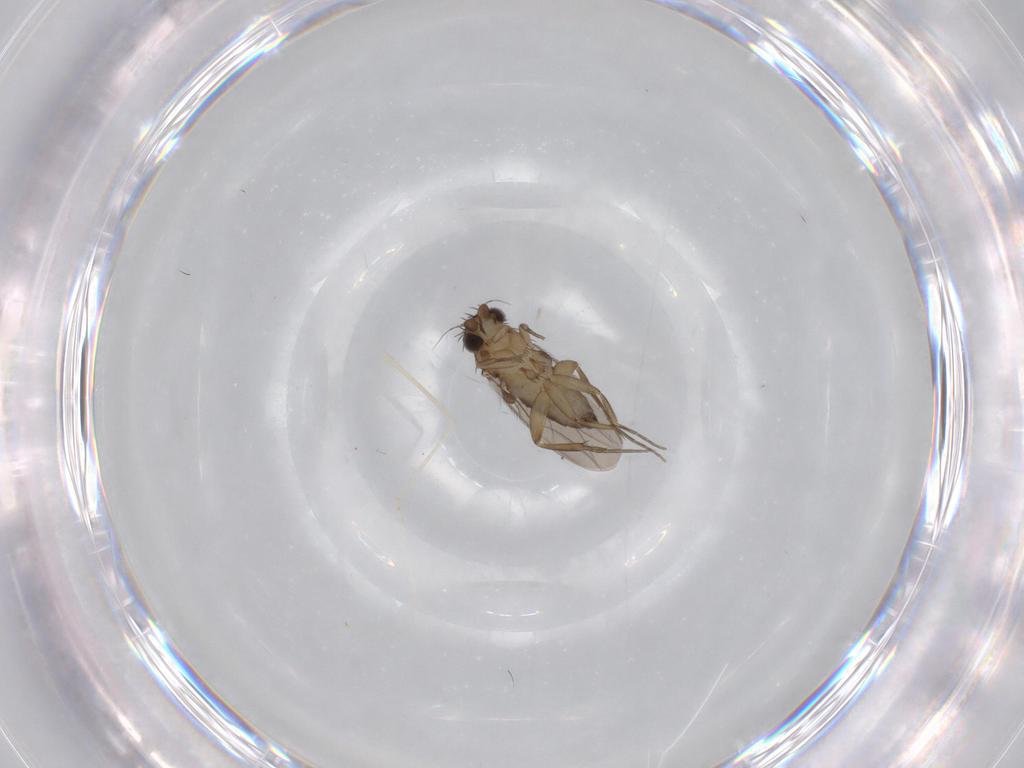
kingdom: Animalia
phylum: Arthropoda
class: Insecta
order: Diptera
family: Phoridae
